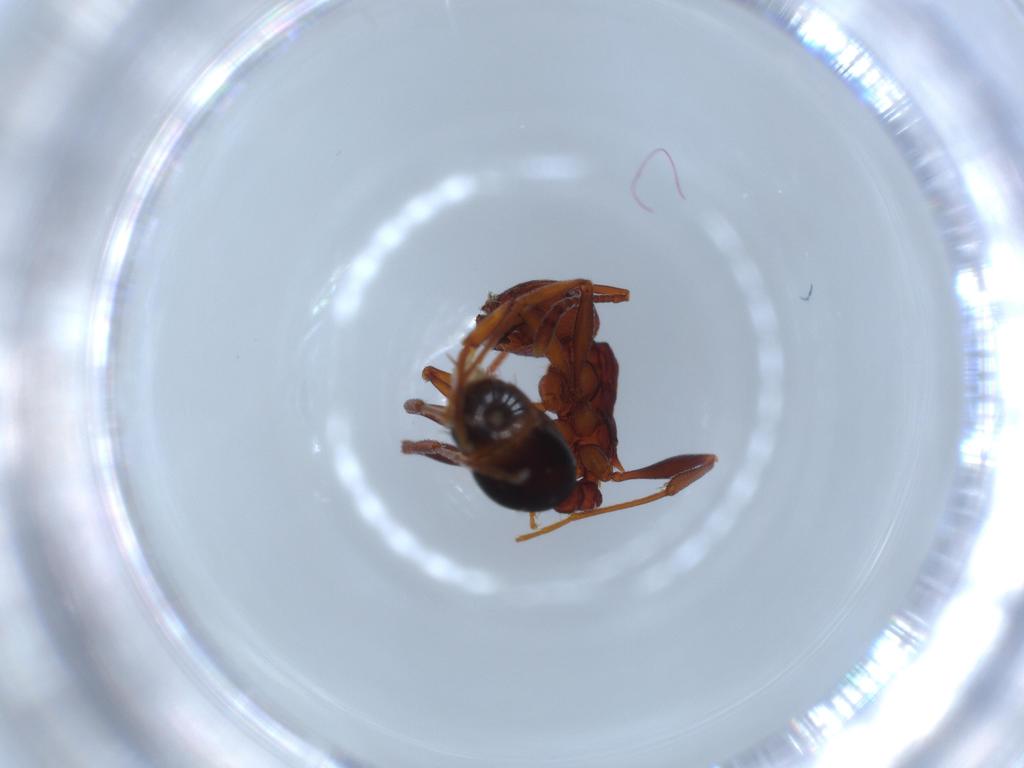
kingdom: Animalia
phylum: Arthropoda
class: Insecta
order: Hymenoptera
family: Formicidae
